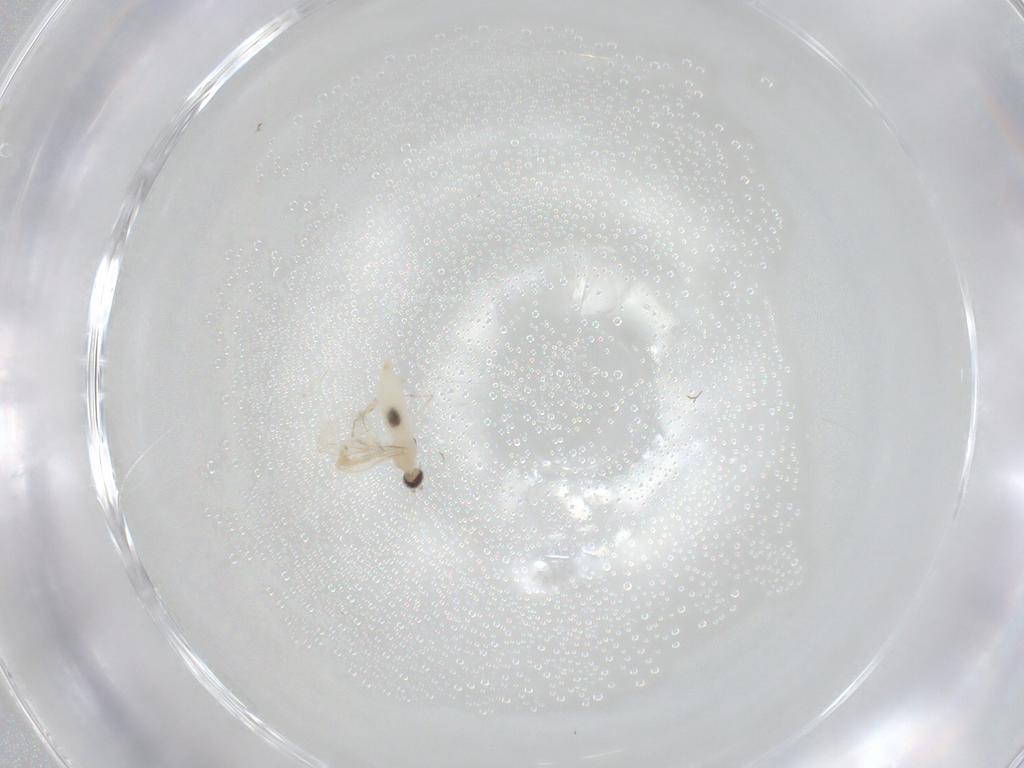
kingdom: Animalia
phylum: Arthropoda
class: Insecta
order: Diptera
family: Cecidomyiidae
